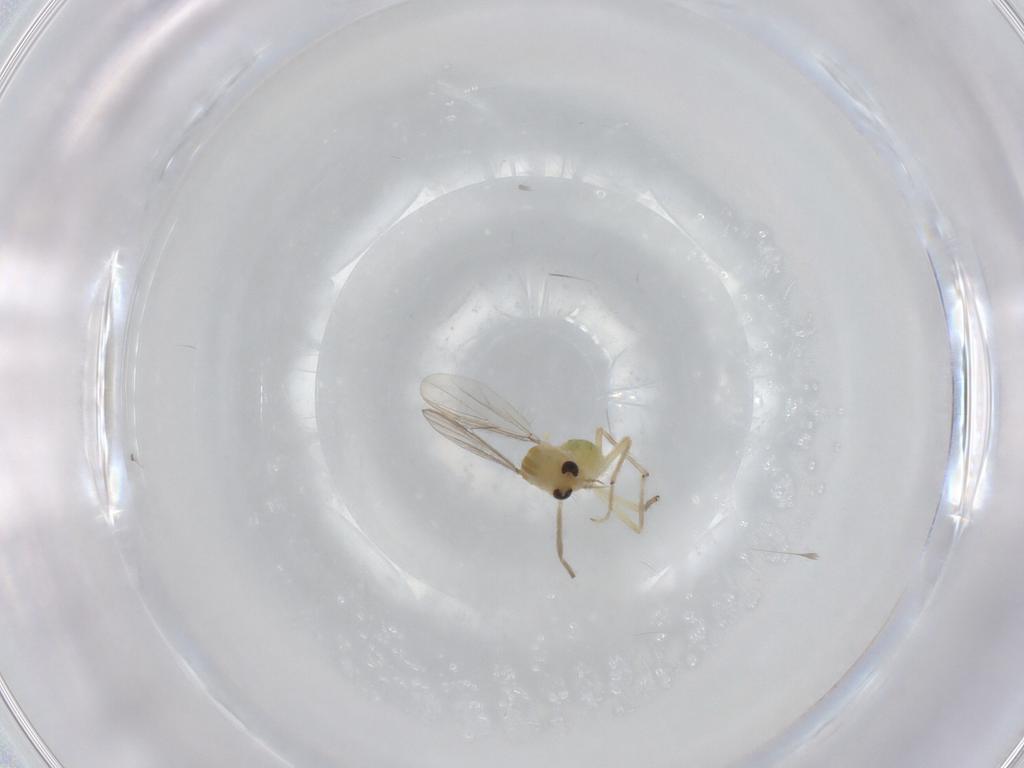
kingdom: Animalia
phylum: Arthropoda
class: Insecta
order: Diptera
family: Chironomidae
